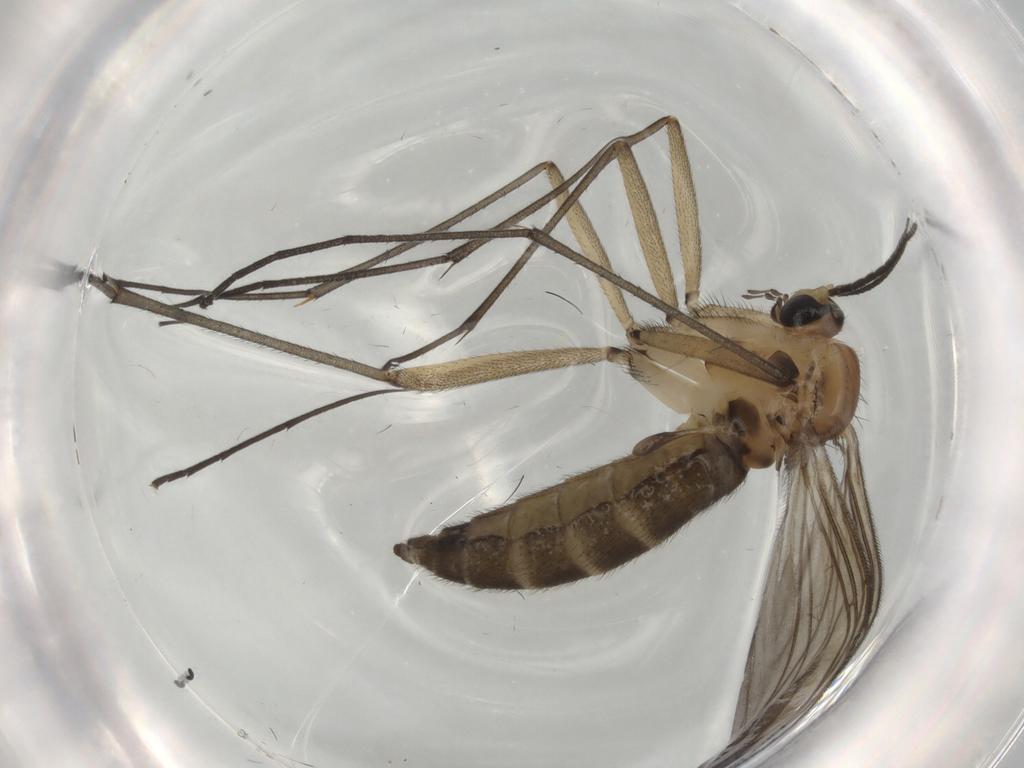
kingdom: Animalia
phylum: Arthropoda
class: Insecta
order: Diptera
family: Sciaridae
